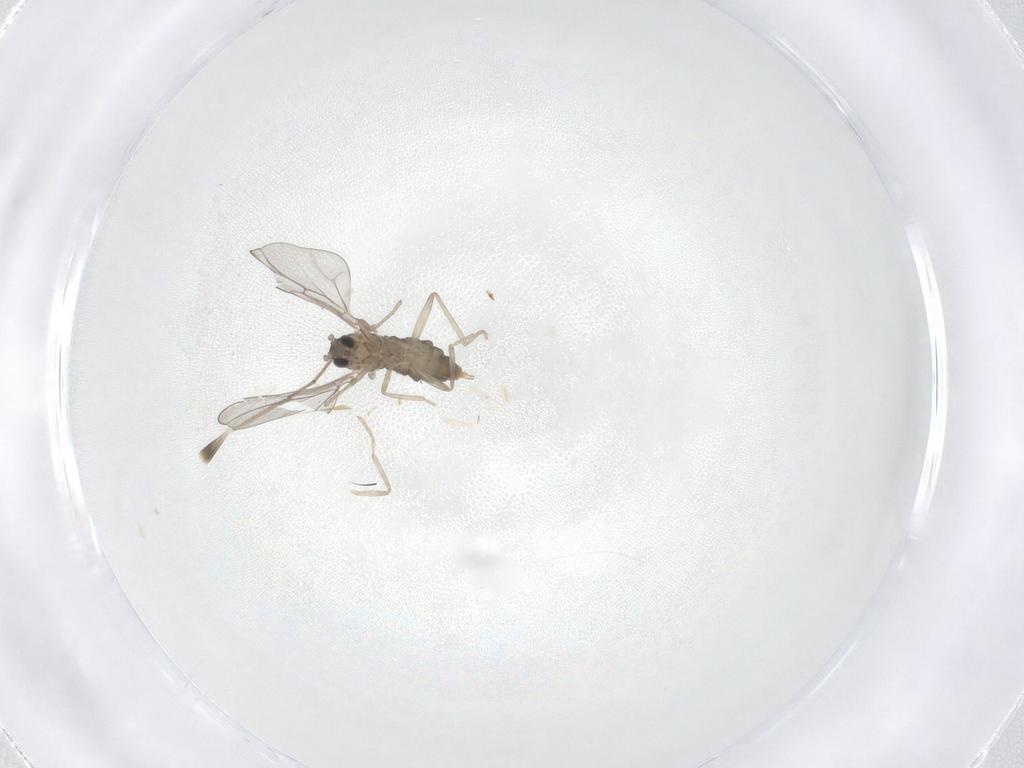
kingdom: Animalia
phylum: Arthropoda
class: Insecta
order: Diptera
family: Cecidomyiidae
